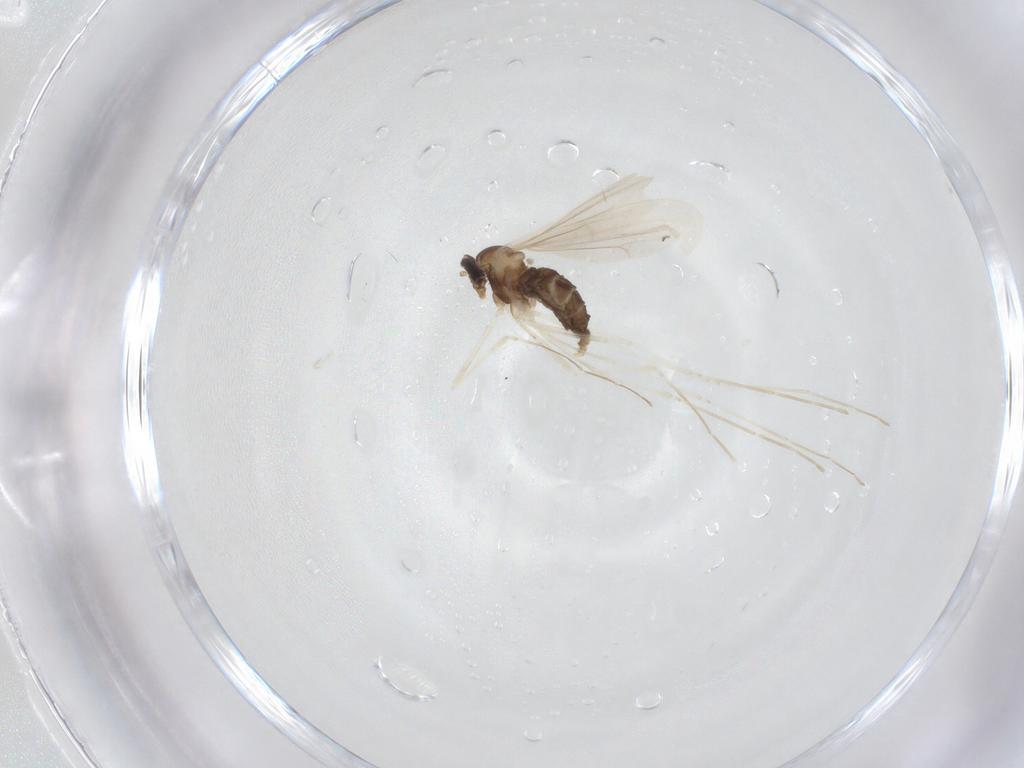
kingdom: Animalia
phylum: Arthropoda
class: Insecta
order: Diptera
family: Cecidomyiidae
